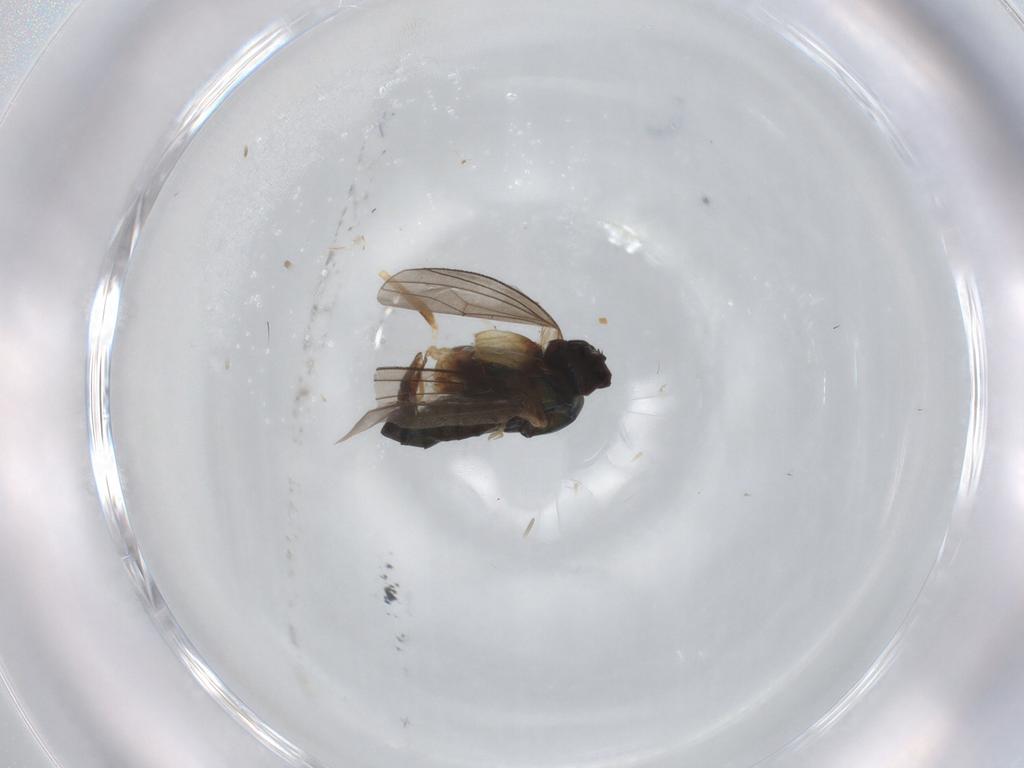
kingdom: Animalia
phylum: Arthropoda
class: Insecta
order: Diptera
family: Dolichopodidae
